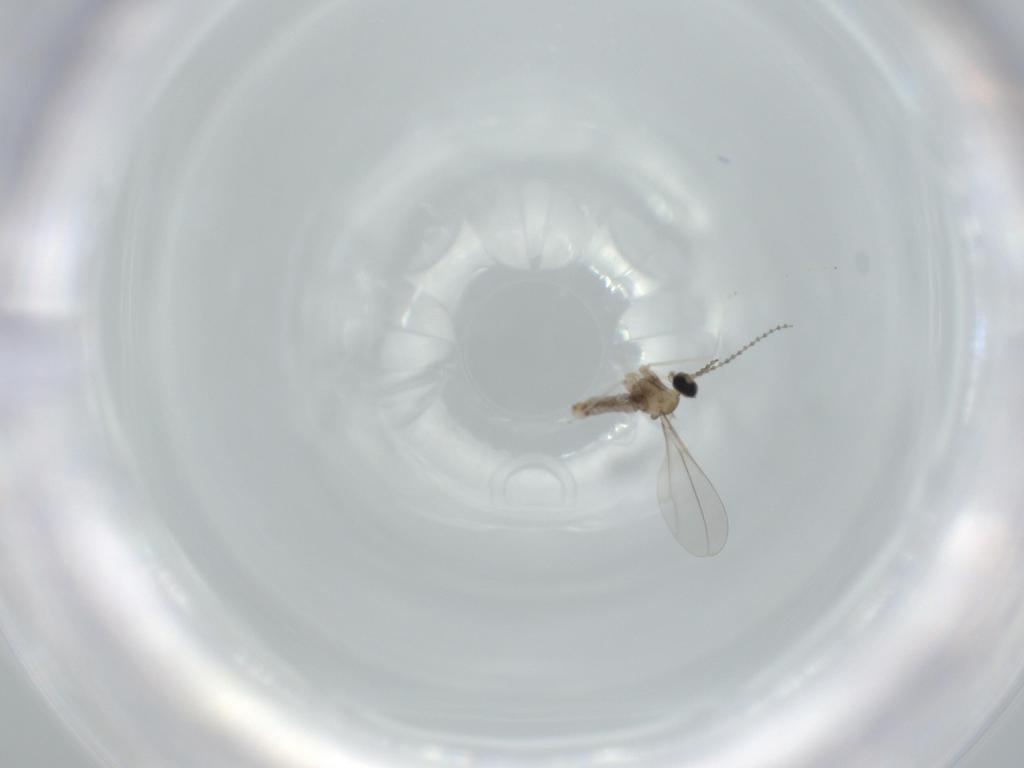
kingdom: Animalia
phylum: Arthropoda
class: Insecta
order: Diptera
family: Cecidomyiidae
